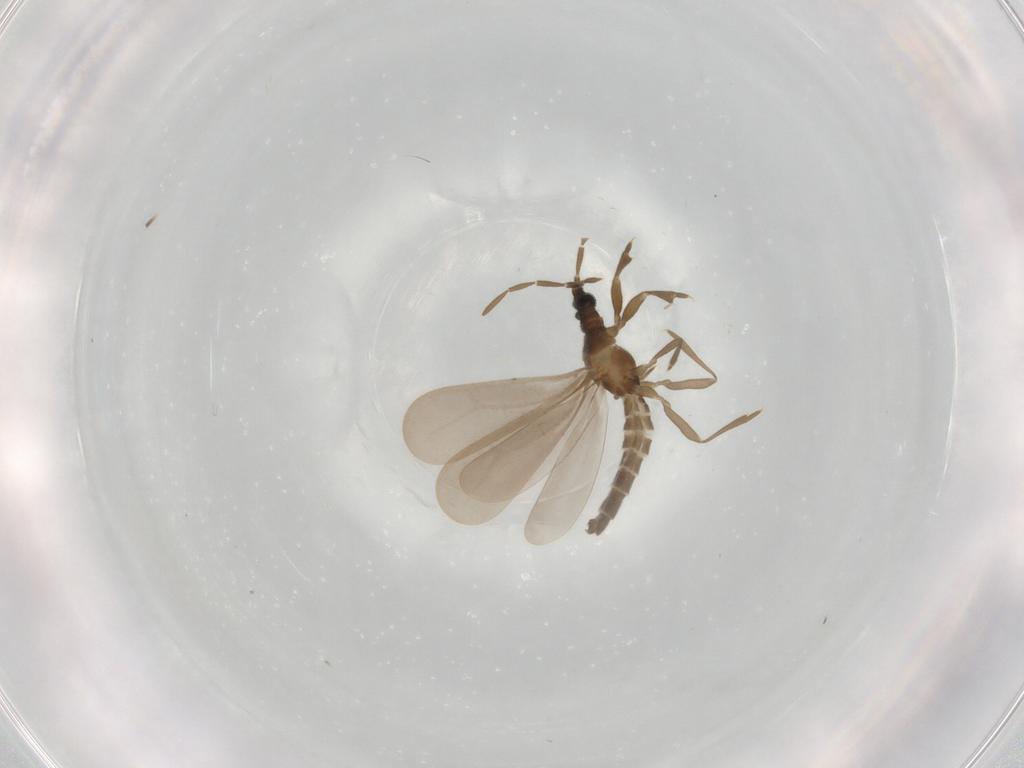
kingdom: Animalia
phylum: Arthropoda
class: Insecta
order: Hemiptera
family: Enicocephalidae
